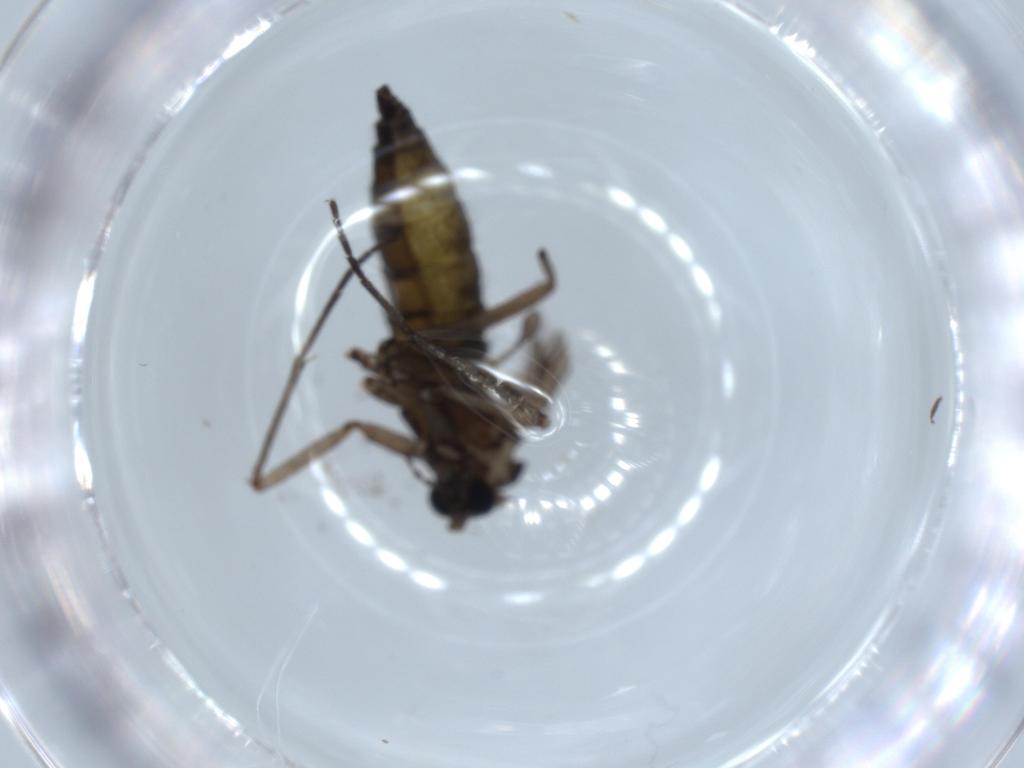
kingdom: Animalia
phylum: Arthropoda
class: Insecta
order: Diptera
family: Sciaridae
